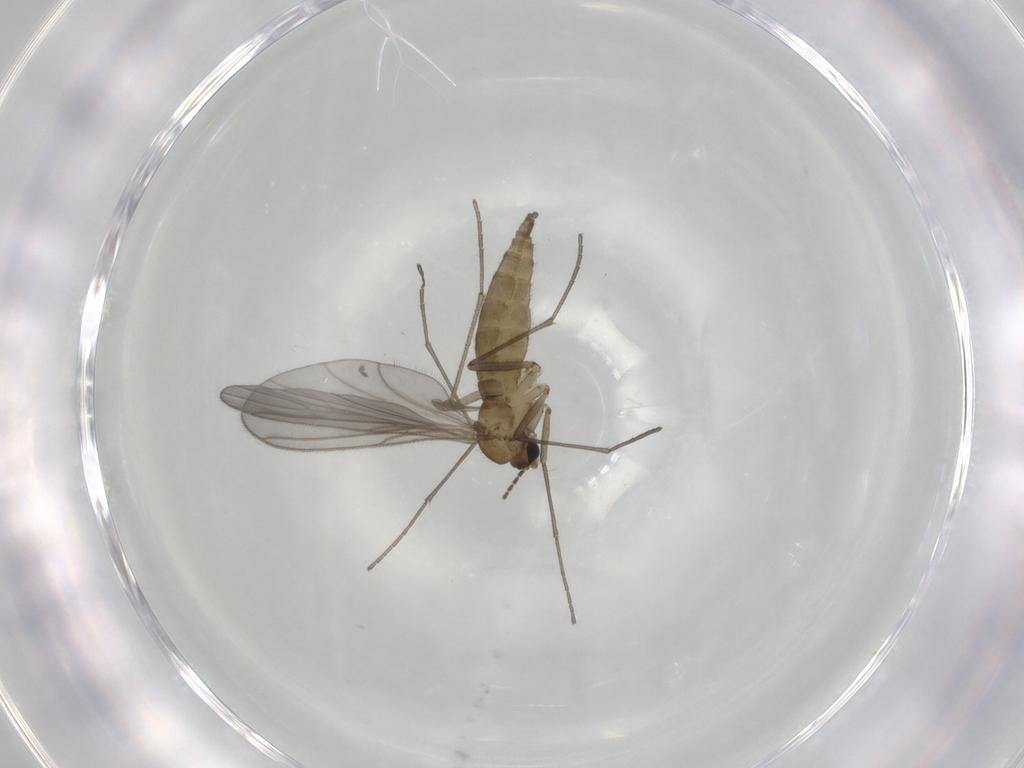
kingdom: Animalia
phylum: Arthropoda
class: Insecta
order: Diptera
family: Sciaridae
